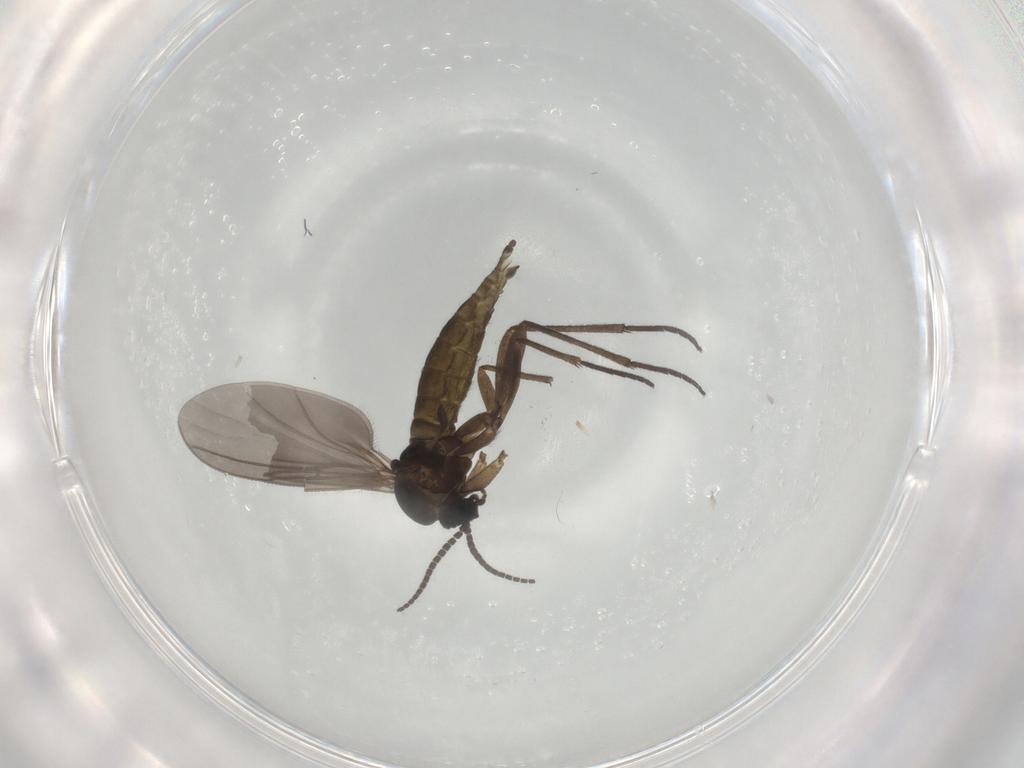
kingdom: Animalia
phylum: Arthropoda
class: Insecta
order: Diptera
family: Sciaridae
